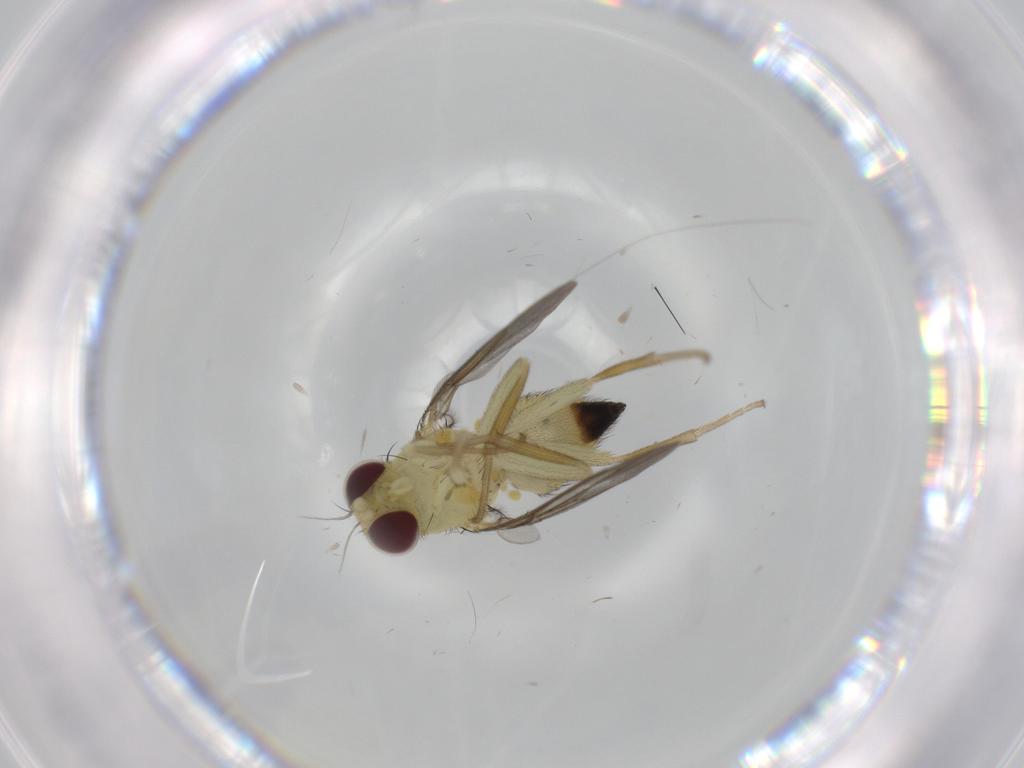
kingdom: Animalia
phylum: Arthropoda
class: Insecta
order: Diptera
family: Agromyzidae
